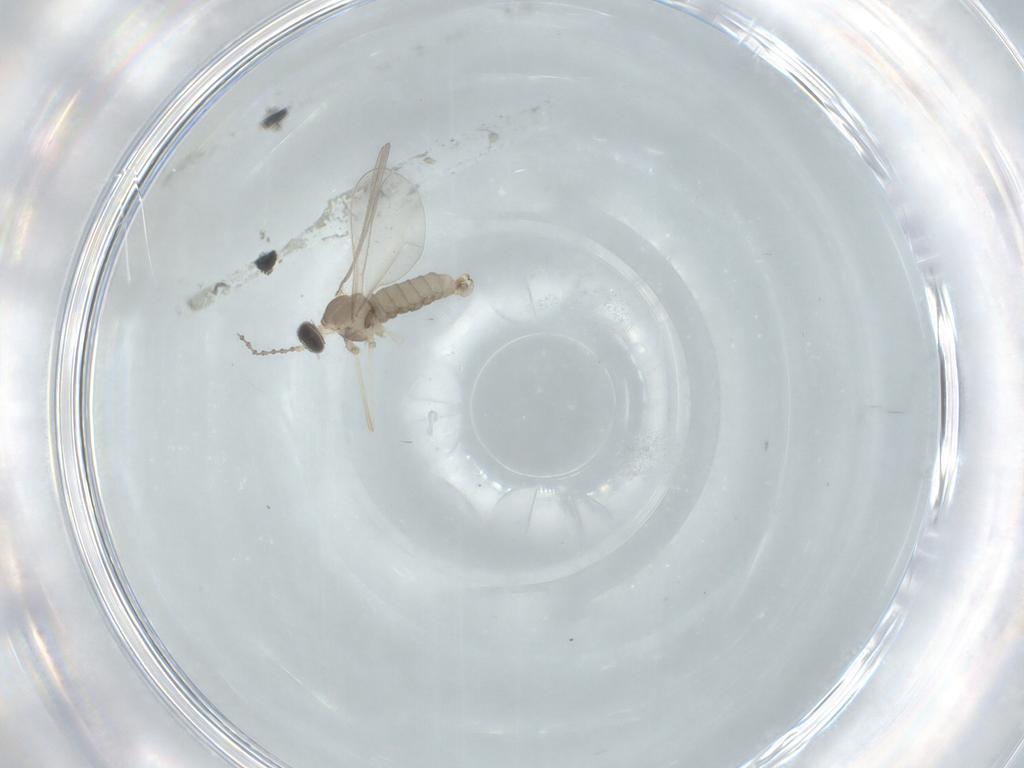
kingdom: Animalia
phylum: Arthropoda
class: Insecta
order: Diptera
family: Cecidomyiidae
